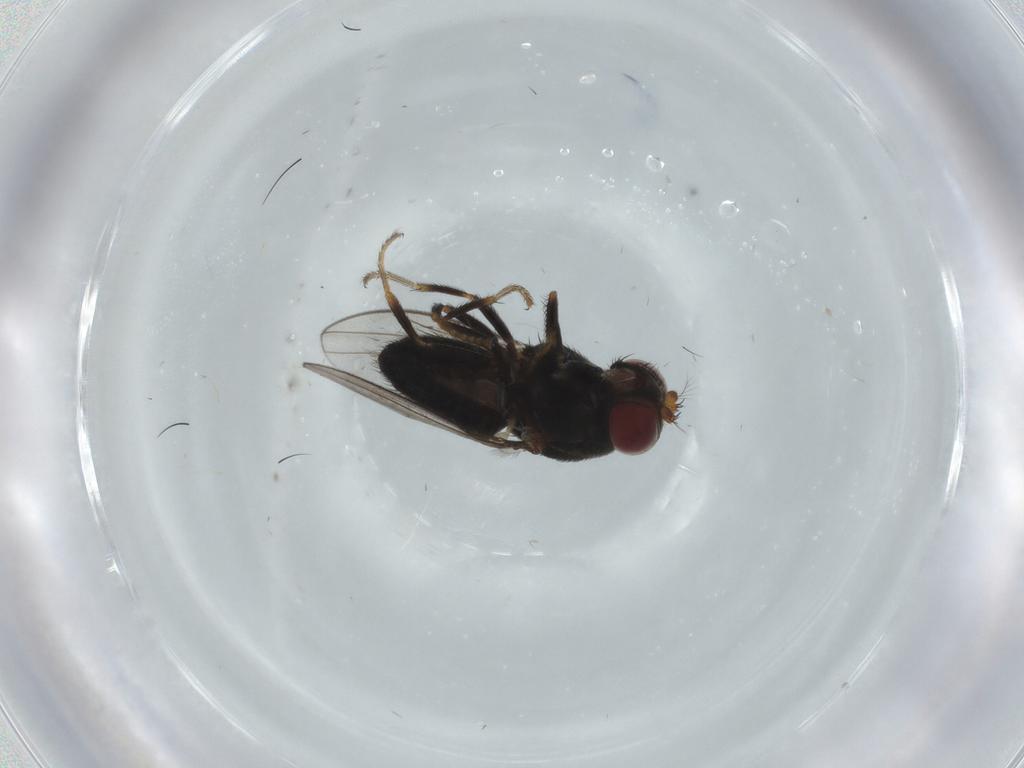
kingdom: Animalia
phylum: Arthropoda
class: Insecta
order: Diptera
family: Ephydridae
